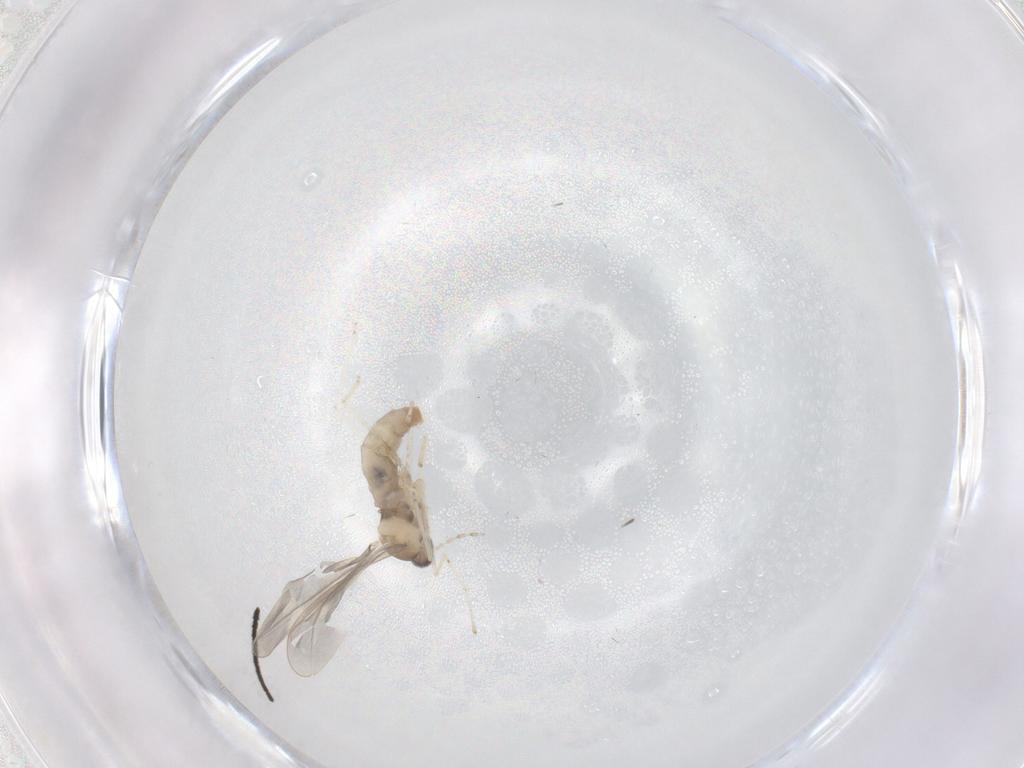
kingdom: Animalia
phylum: Arthropoda
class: Insecta
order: Diptera
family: Cecidomyiidae
